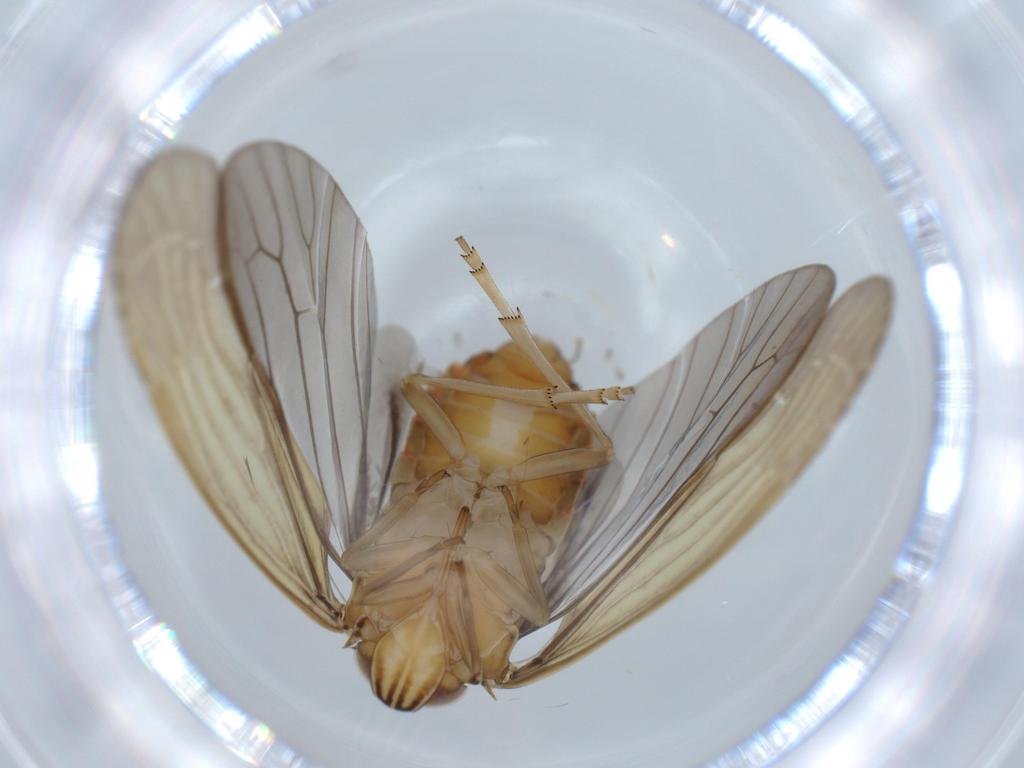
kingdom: Animalia
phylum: Arthropoda
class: Insecta
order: Hemiptera
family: Achilidae
